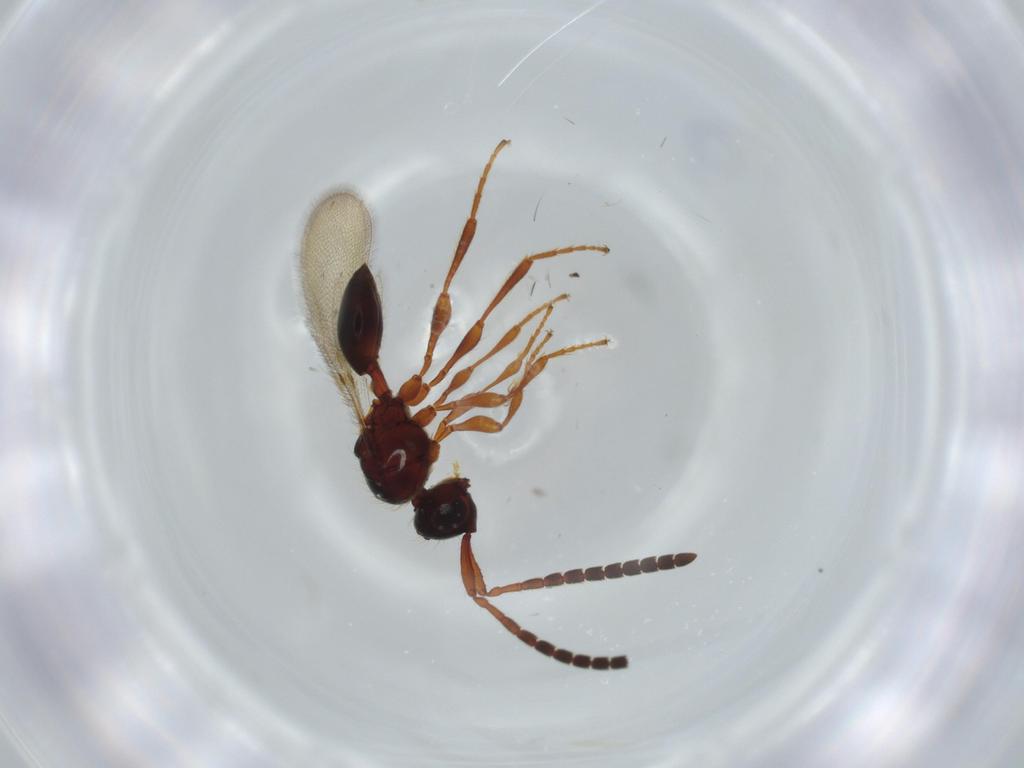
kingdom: Animalia
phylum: Arthropoda
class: Insecta
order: Hymenoptera
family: Diapriidae
